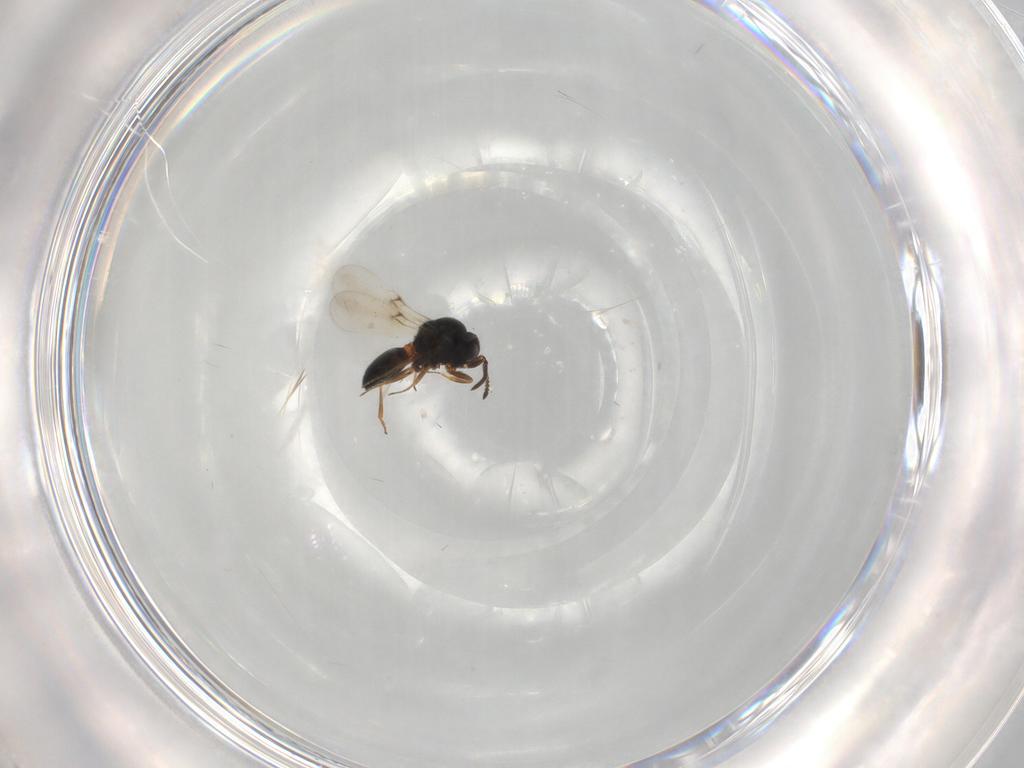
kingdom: Animalia
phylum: Arthropoda
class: Insecta
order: Hymenoptera
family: Scelionidae
